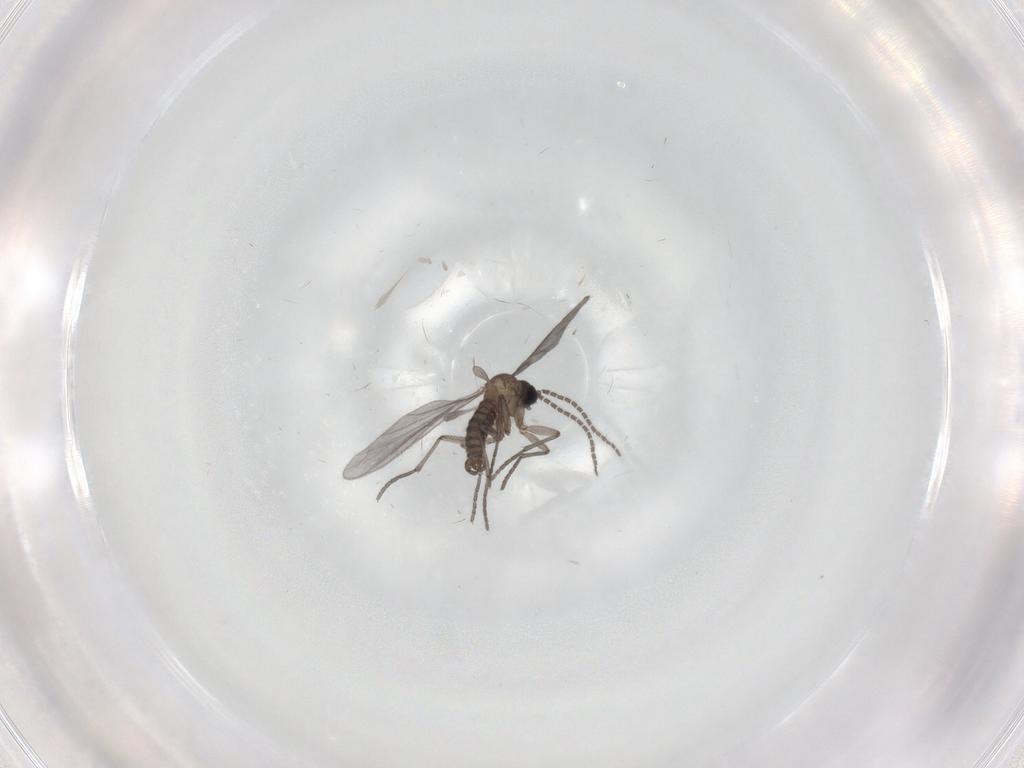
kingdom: Animalia
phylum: Arthropoda
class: Insecta
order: Diptera
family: Sciaridae
